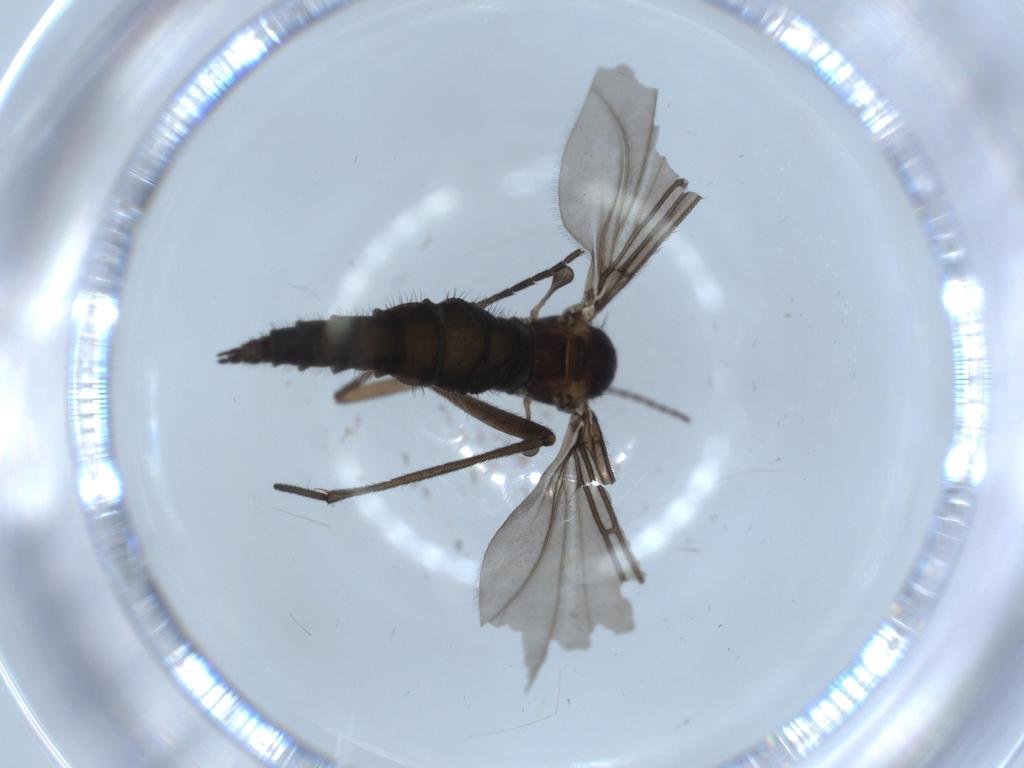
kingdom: Animalia
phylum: Arthropoda
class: Insecta
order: Diptera
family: Sciaridae
